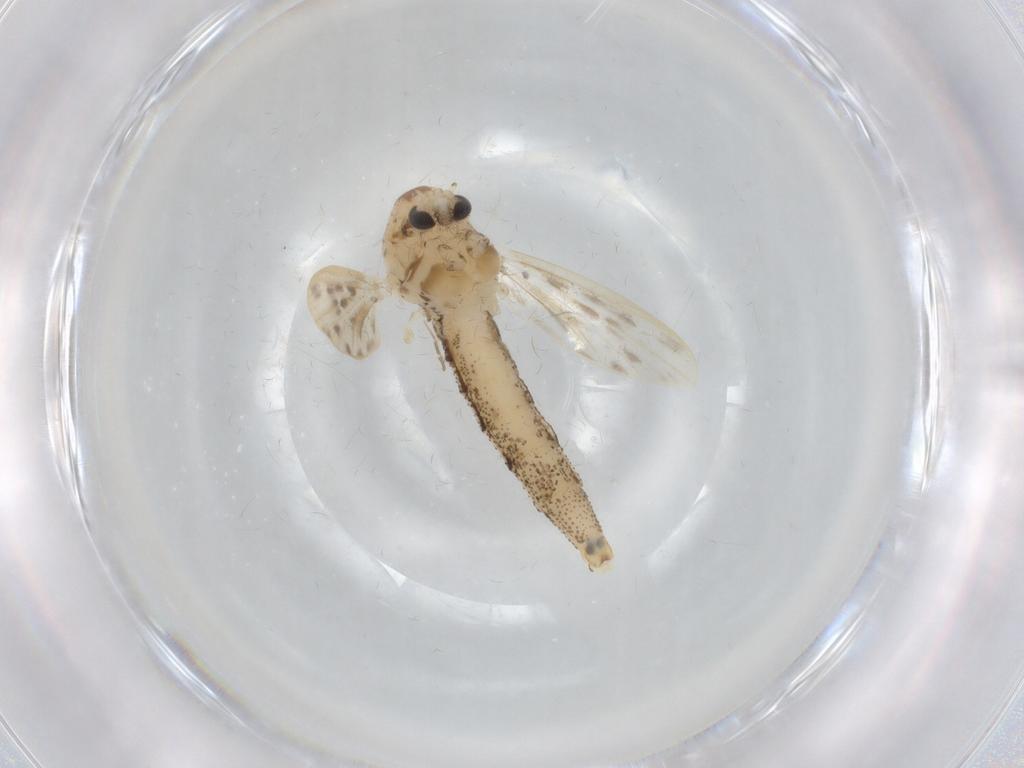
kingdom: Animalia
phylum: Arthropoda
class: Insecta
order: Diptera
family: Chaoboridae
